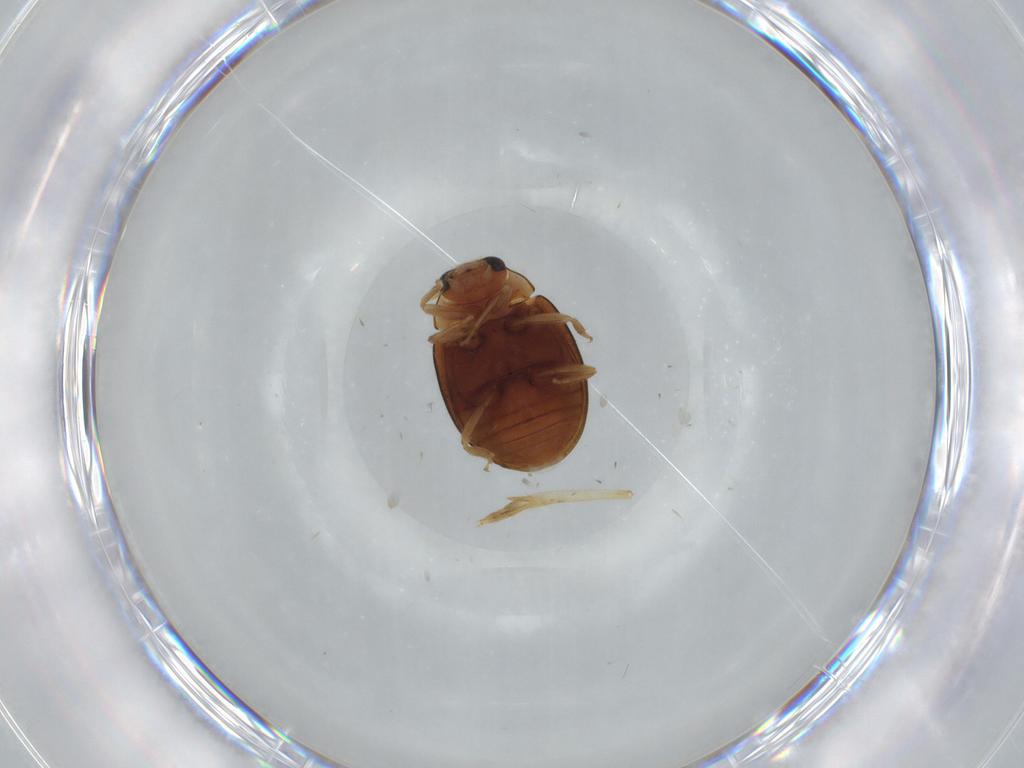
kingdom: Animalia
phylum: Arthropoda
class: Insecta
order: Coleoptera
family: Coccinellidae
